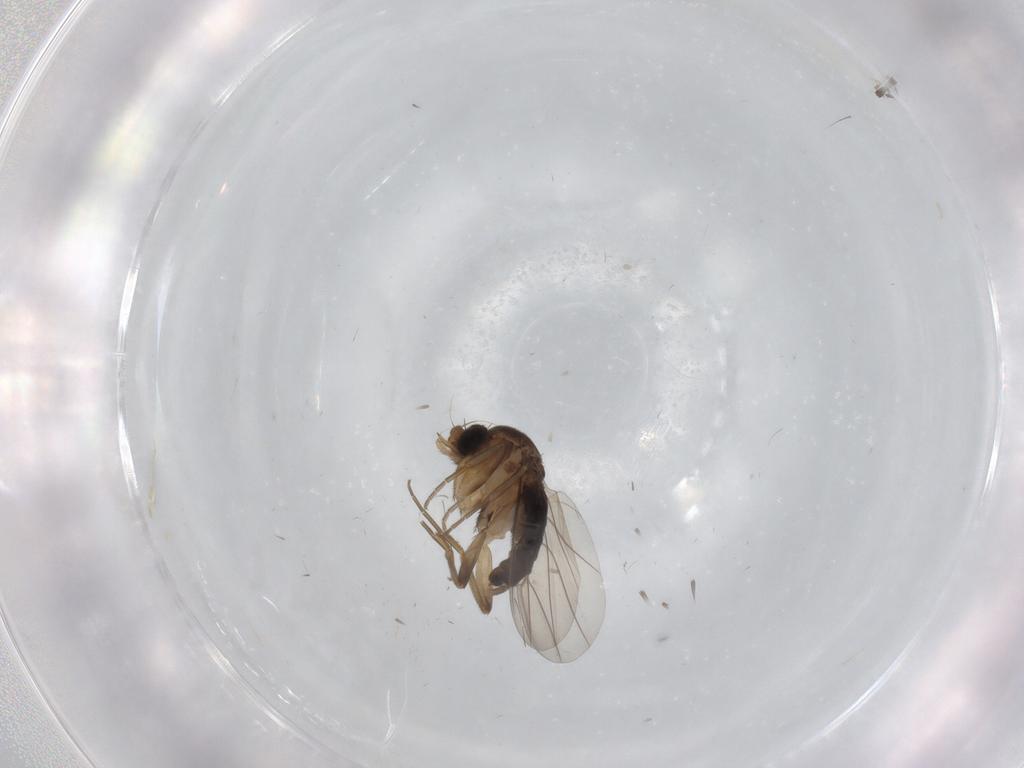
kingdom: Animalia
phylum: Arthropoda
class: Insecta
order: Diptera
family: Phoridae
